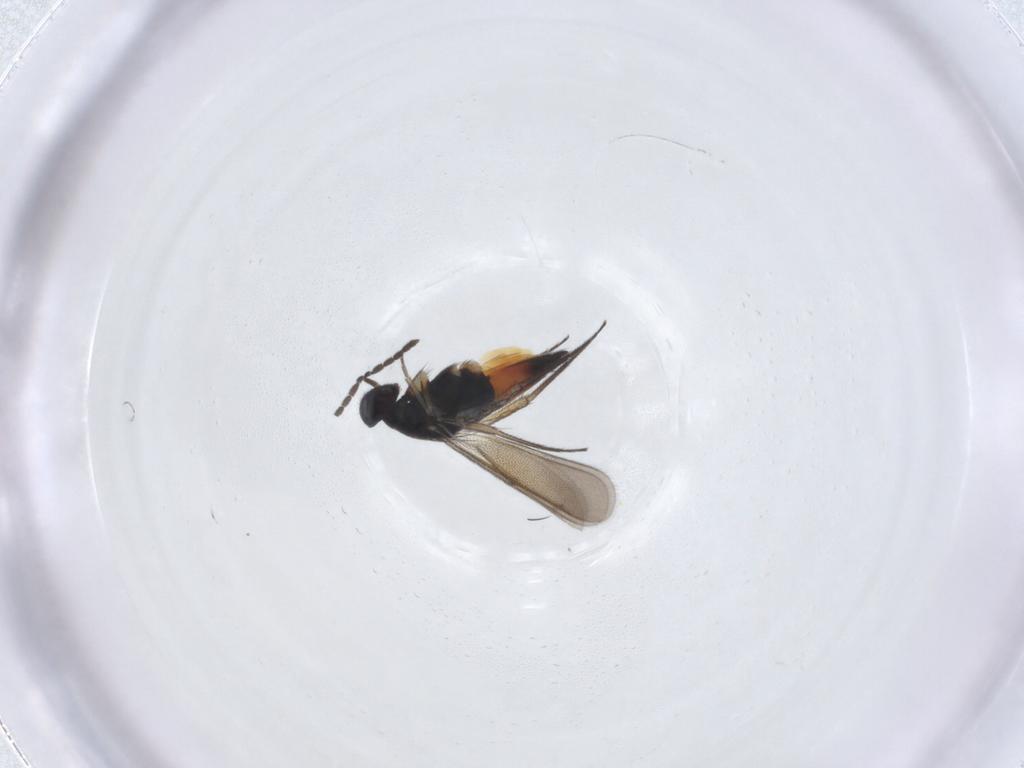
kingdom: Animalia
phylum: Arthropoda
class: Insecta
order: Hymenoptera
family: Eulophidae
